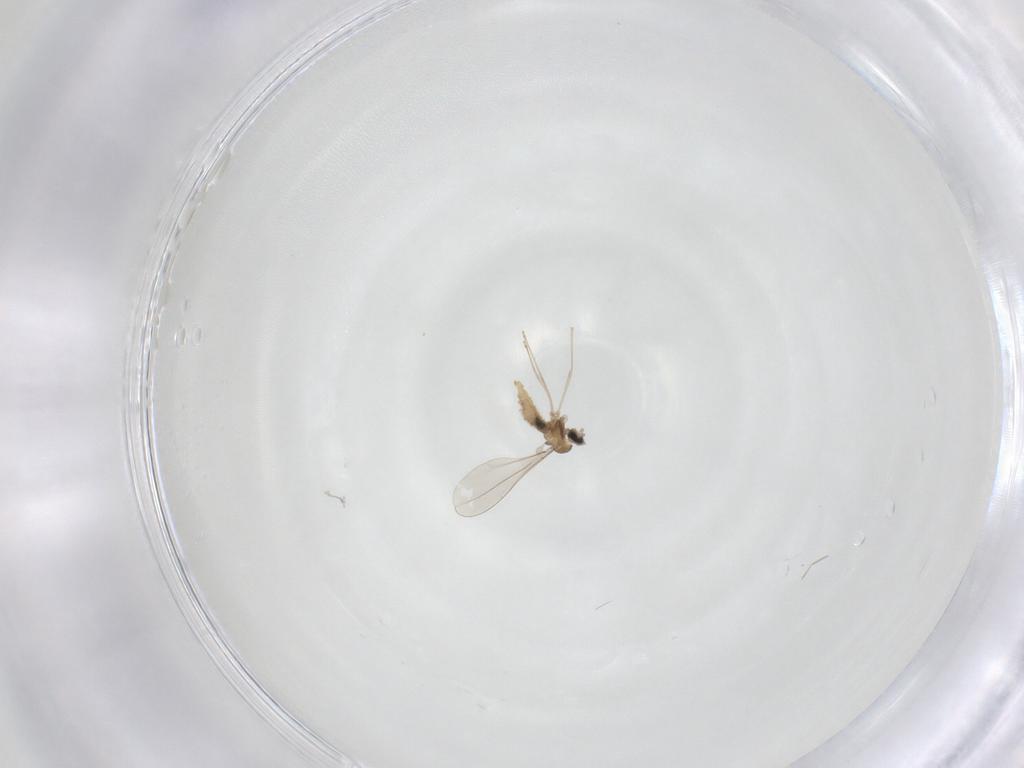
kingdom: Animalia
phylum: Arthropoda
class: Insecta
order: Diptera
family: Cecidomyiidae
